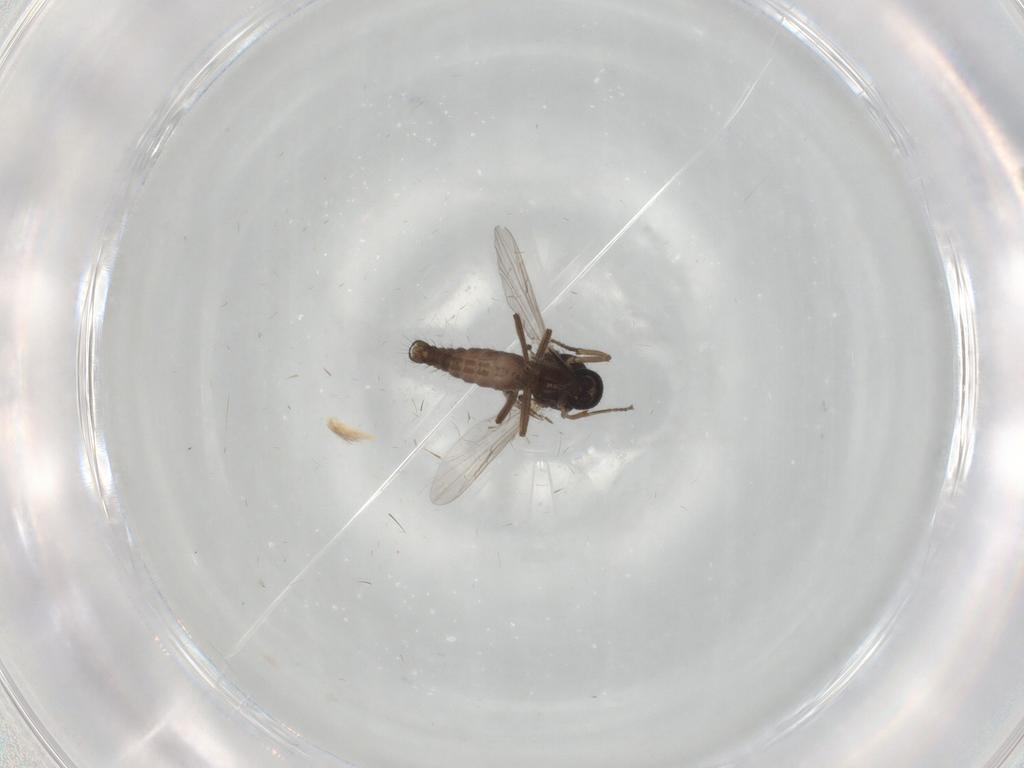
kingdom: Animalia
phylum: Arthropoda
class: Insecta
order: Diptera
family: Ceratopogonidae
